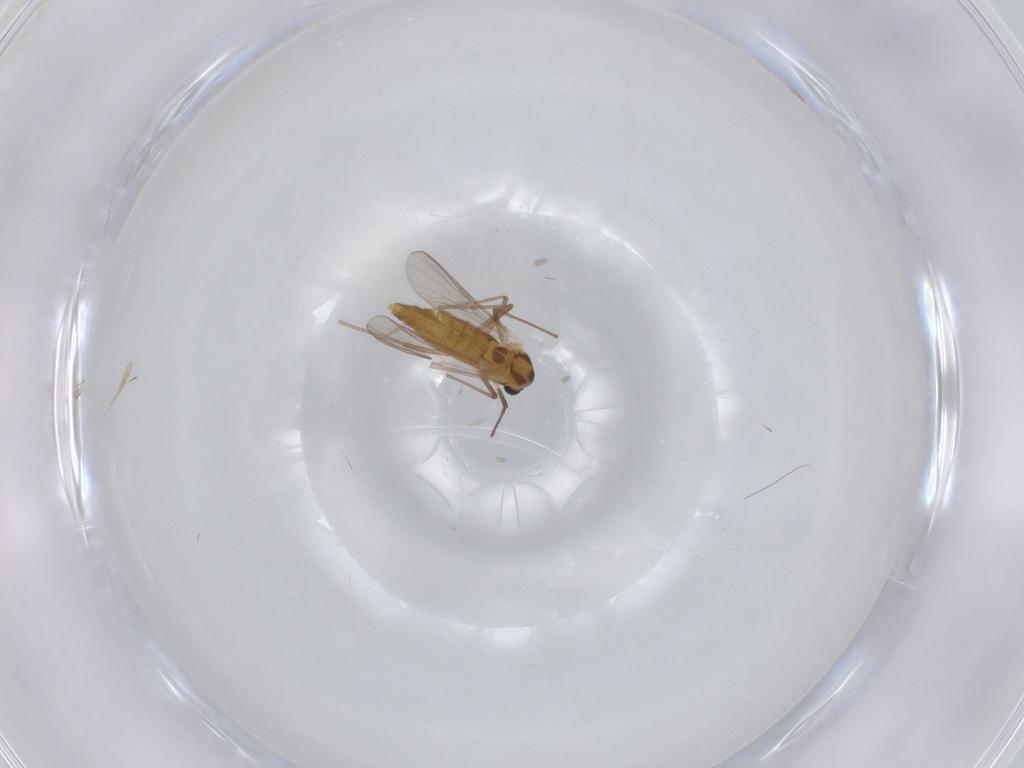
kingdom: Animalia
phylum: Arthropoda
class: Insecta
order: Diptera
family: Chironomidae
